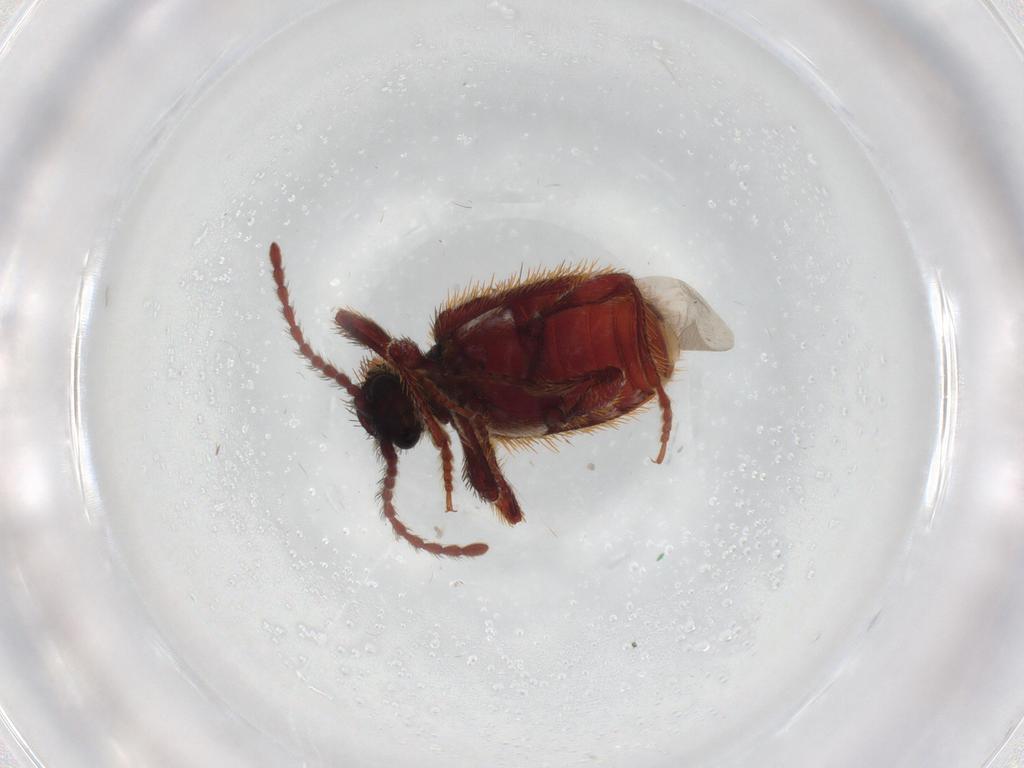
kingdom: Animalia
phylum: Arthropoda
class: Insecta
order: Coleoptera
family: Ptinidae
